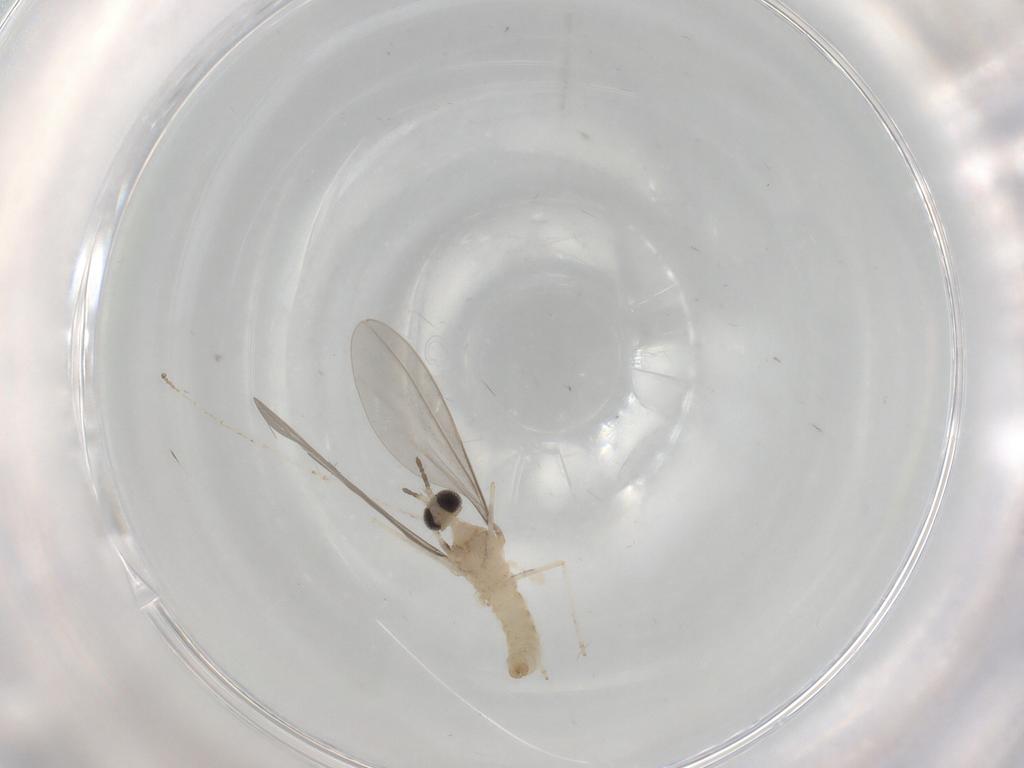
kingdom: Animalia
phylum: Arthropoda
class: Insecta
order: Diptera
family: Cecidomyiidae
